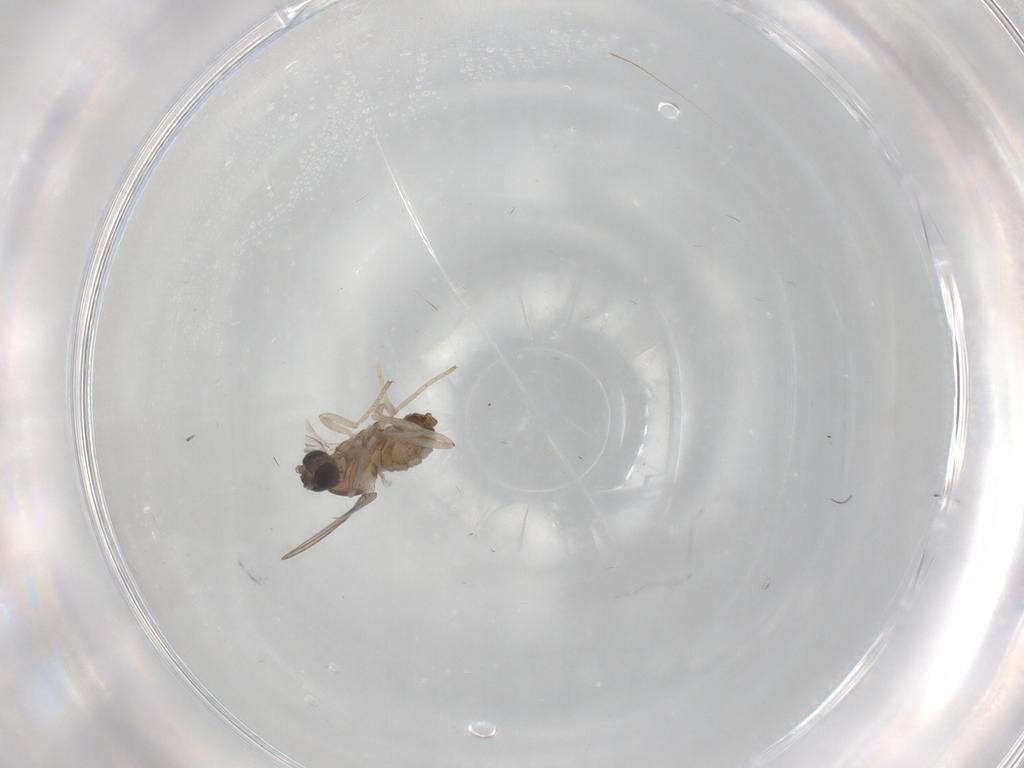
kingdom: Animalia
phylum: Arthropoda
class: Insecta
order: Diptera
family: Cecidomyiidae
